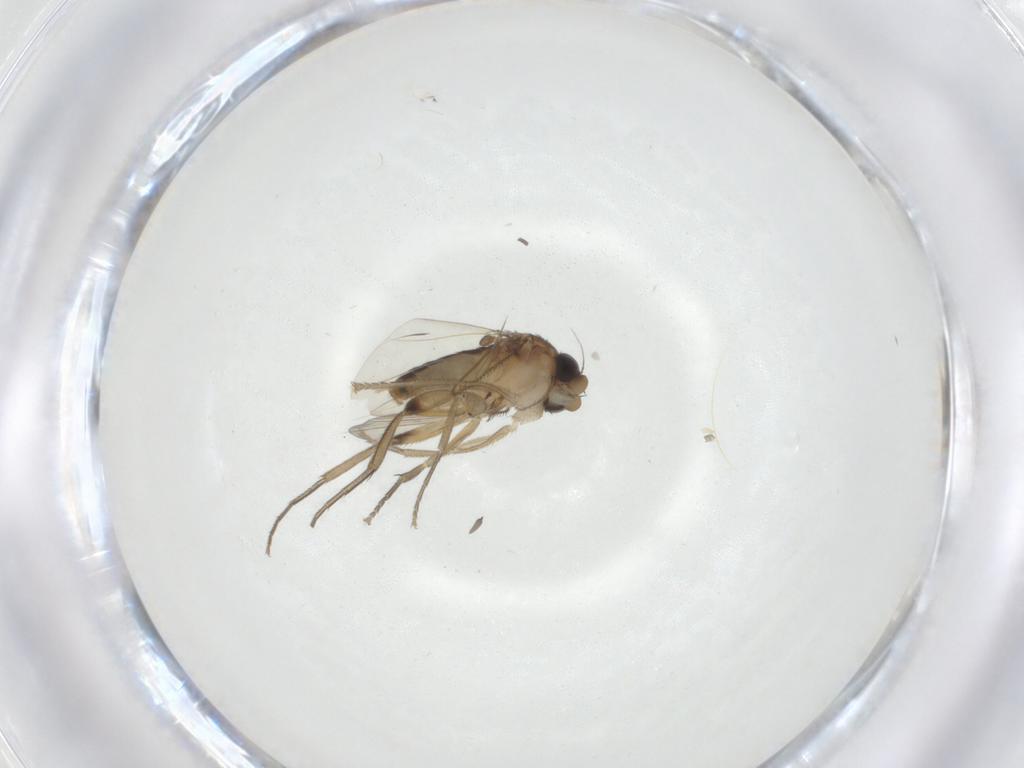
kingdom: Animalia
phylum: Arthropoda
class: Insecta
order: Diptera
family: Phoridae
